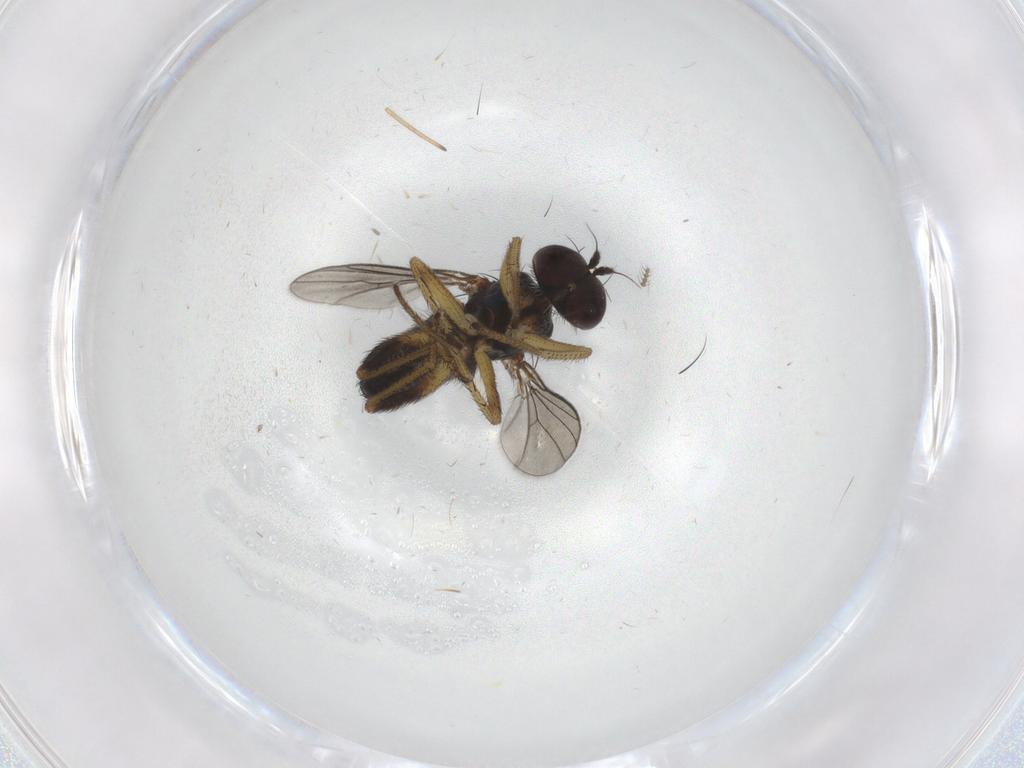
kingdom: Animalia
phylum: Arthropoda
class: Insecta
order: Diptera
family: Dolichopodidae
